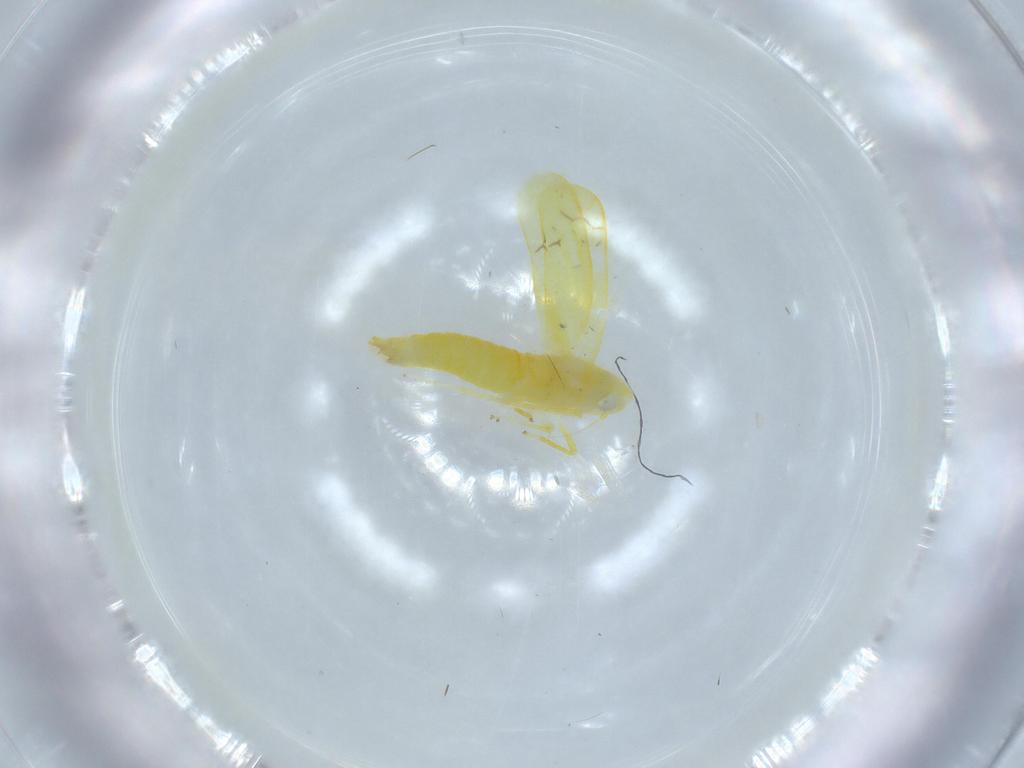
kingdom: Animalia
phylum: Arthropoda
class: Insecta
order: Hemiptera
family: Cicadellidae
